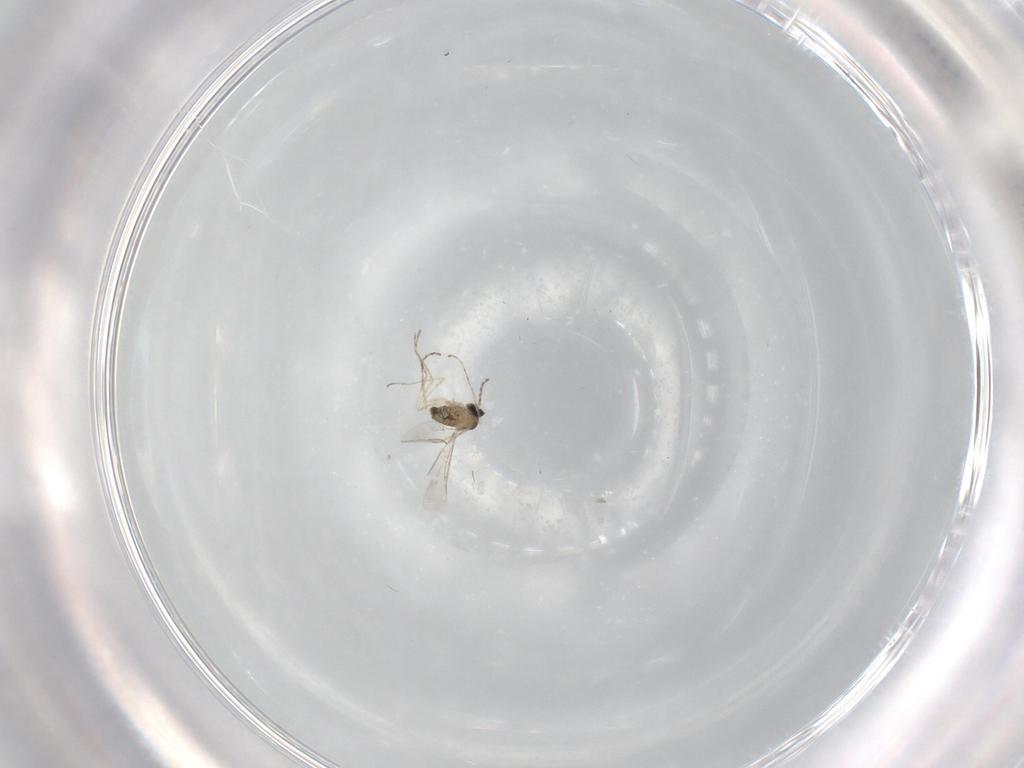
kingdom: Animalia
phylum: Arthropoda
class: Insecta
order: Diptera
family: Cecidomyiidae
